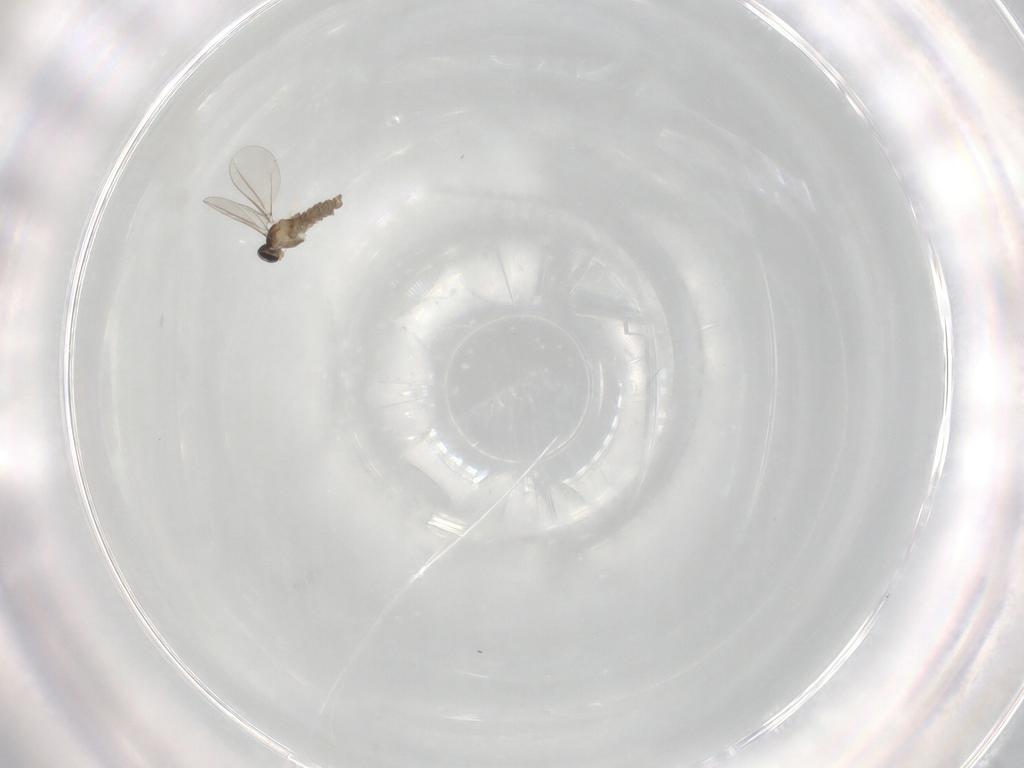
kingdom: Animalia
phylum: Arthropoda
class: Insecta
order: Diptera
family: Cecidomyiidae
